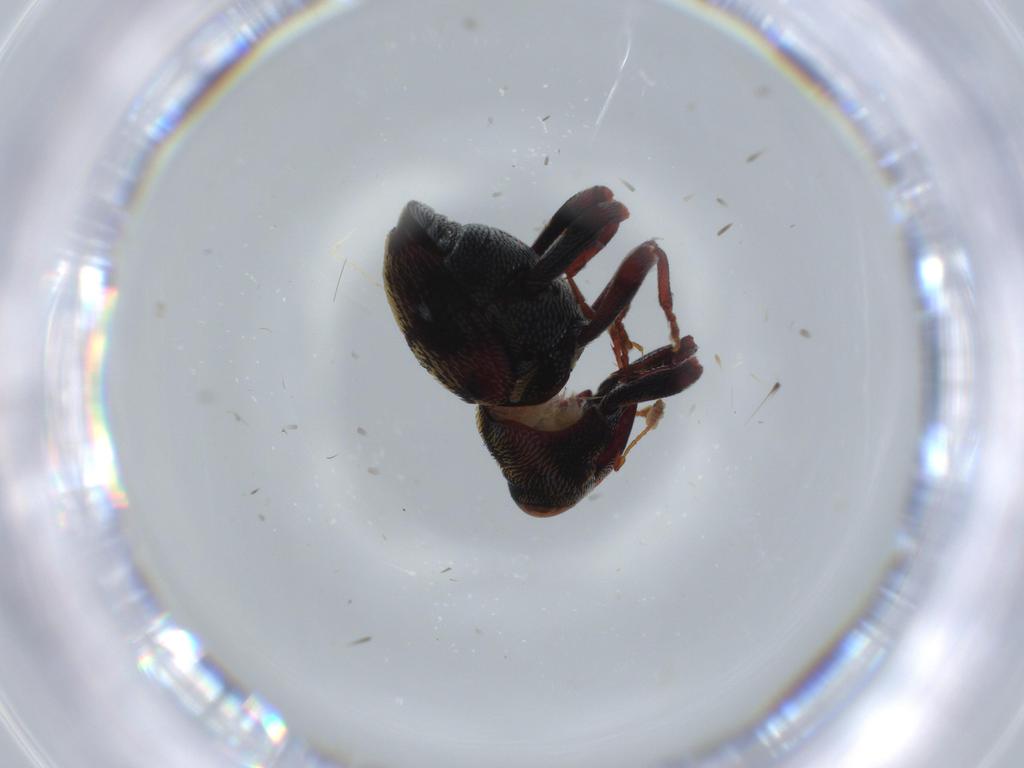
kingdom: Animalia
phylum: Arthropoda
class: Insecta
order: Coleoptera
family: Curculionidae
